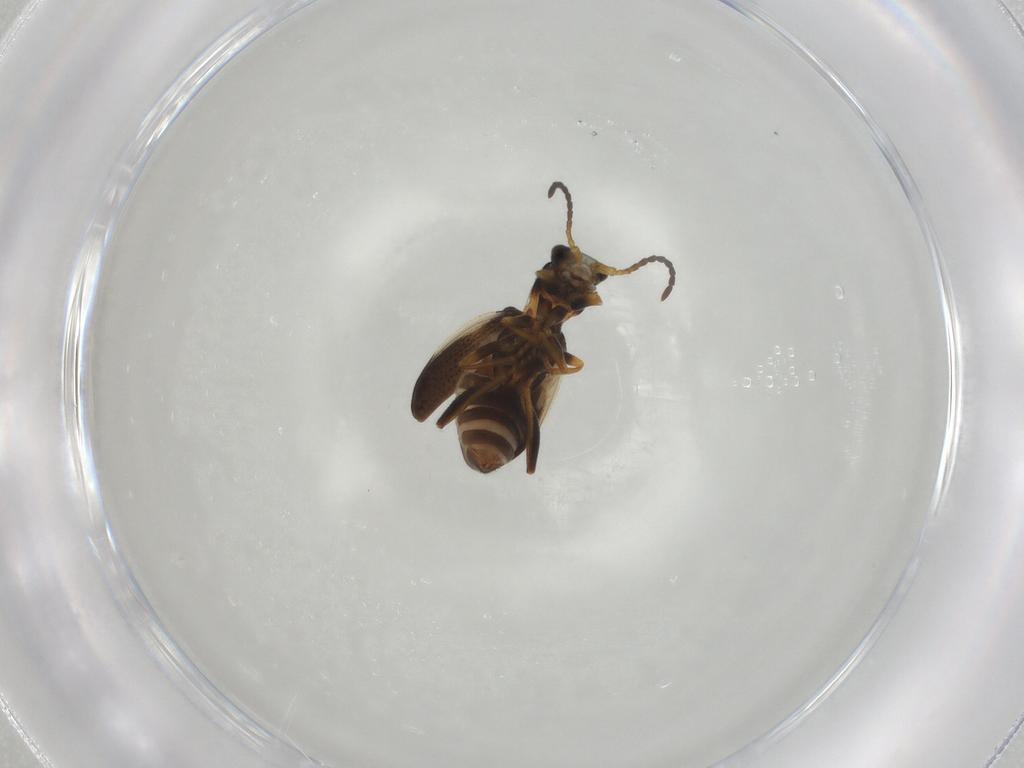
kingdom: Animalia
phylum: Arthropoda
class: Insecta
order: Coleoptera
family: Melyridae
